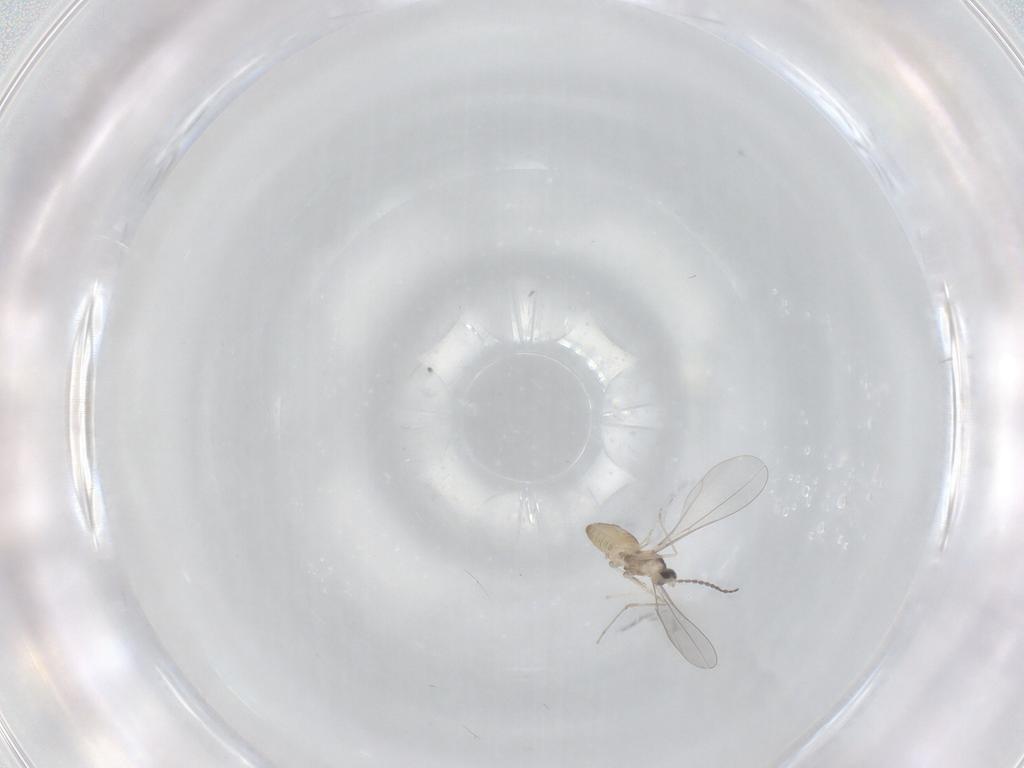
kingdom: Animalia
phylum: Arthropoda
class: Insecta
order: Diptera
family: Cecidomyiidae
